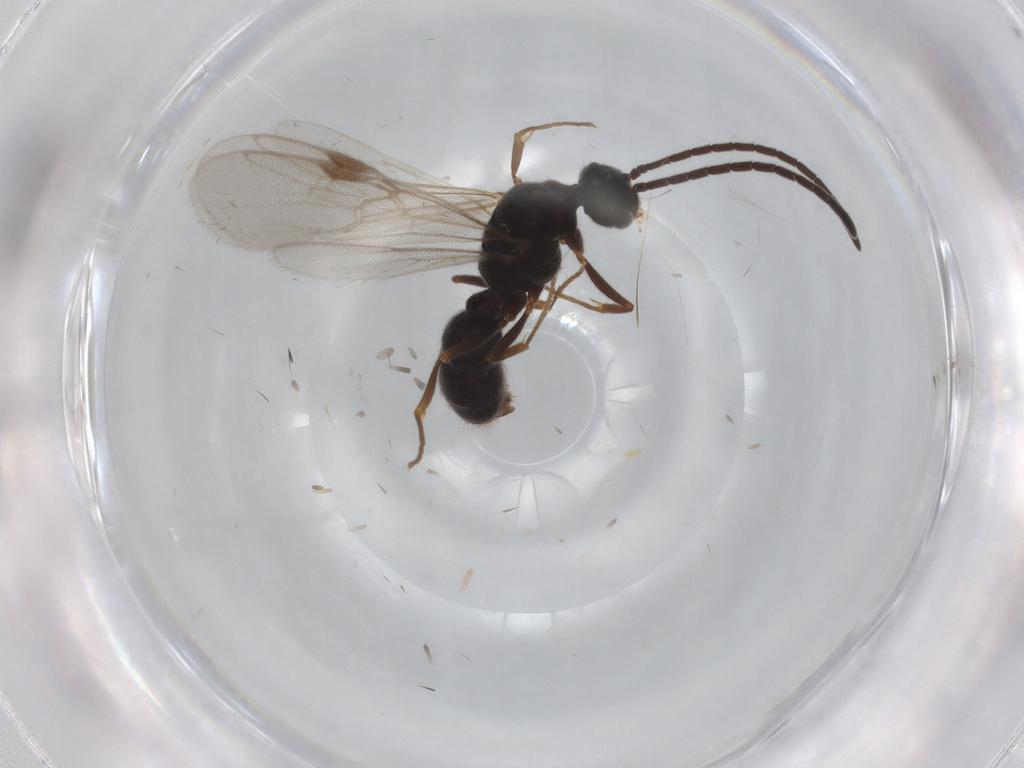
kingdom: Animalia
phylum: Arthropoda
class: Insecta
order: Hymenoptera
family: Formicidae
